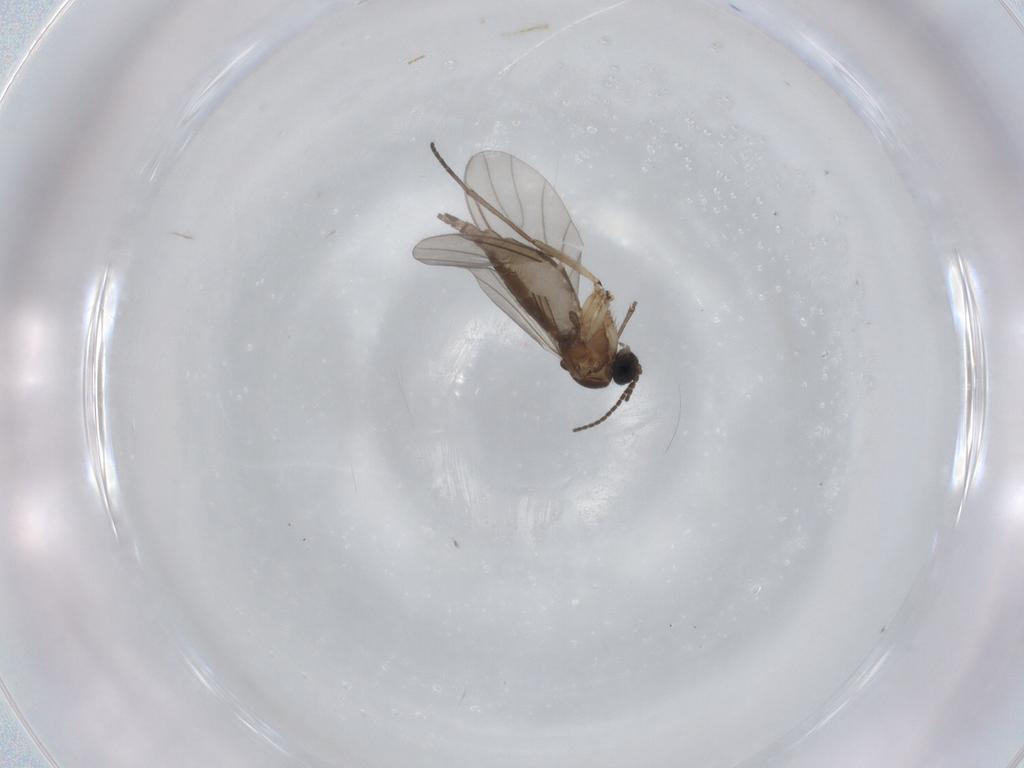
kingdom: Animalia
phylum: Arthropoda
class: Insecta
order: Diptera
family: Sciaridae
